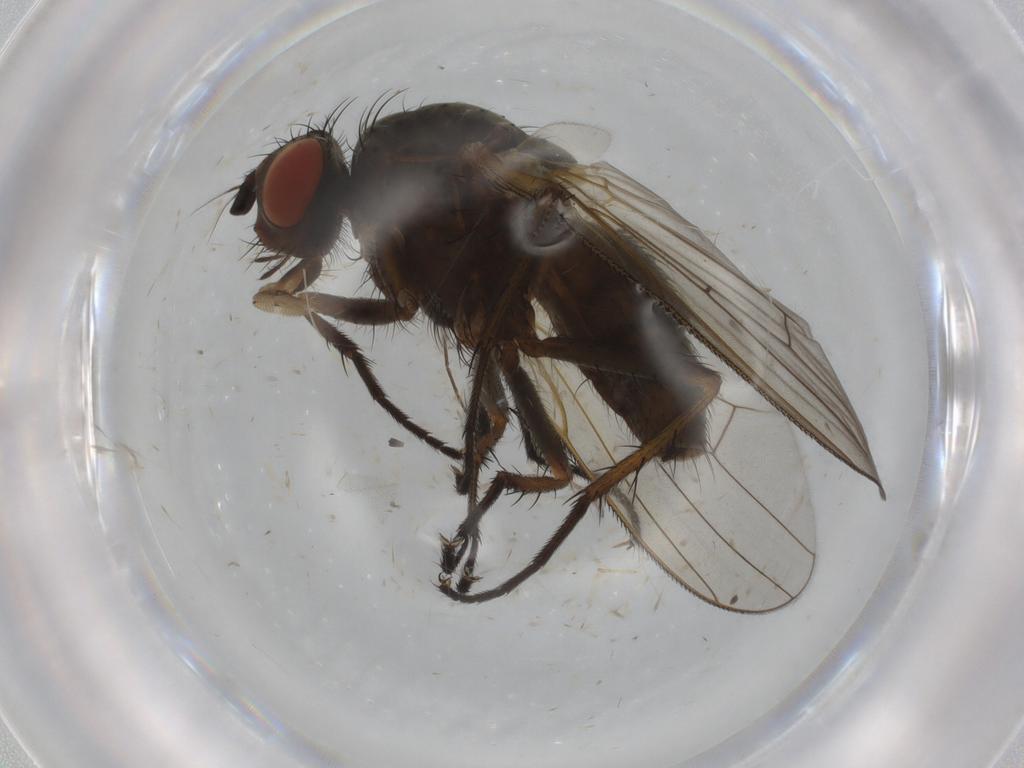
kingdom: Animalia
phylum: Arthropoda
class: Insecta
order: Diptera
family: Anthomyiidae
